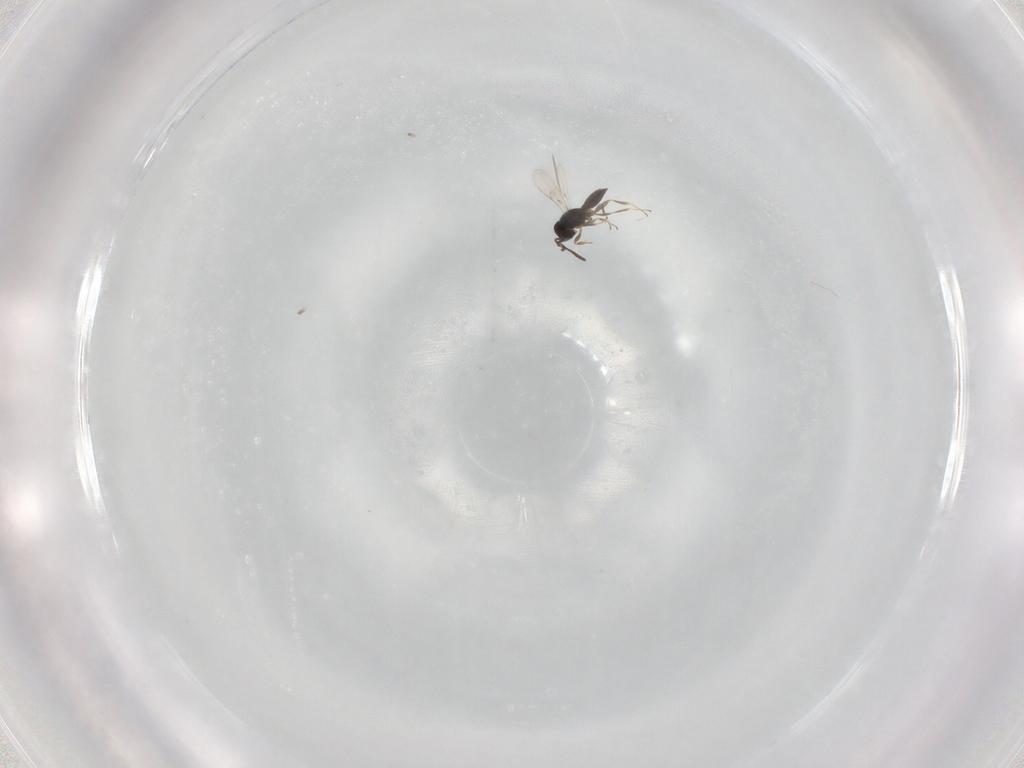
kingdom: Animalia
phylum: Arthropoda
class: Insecta
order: Hymenoptera
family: Scelionidae
